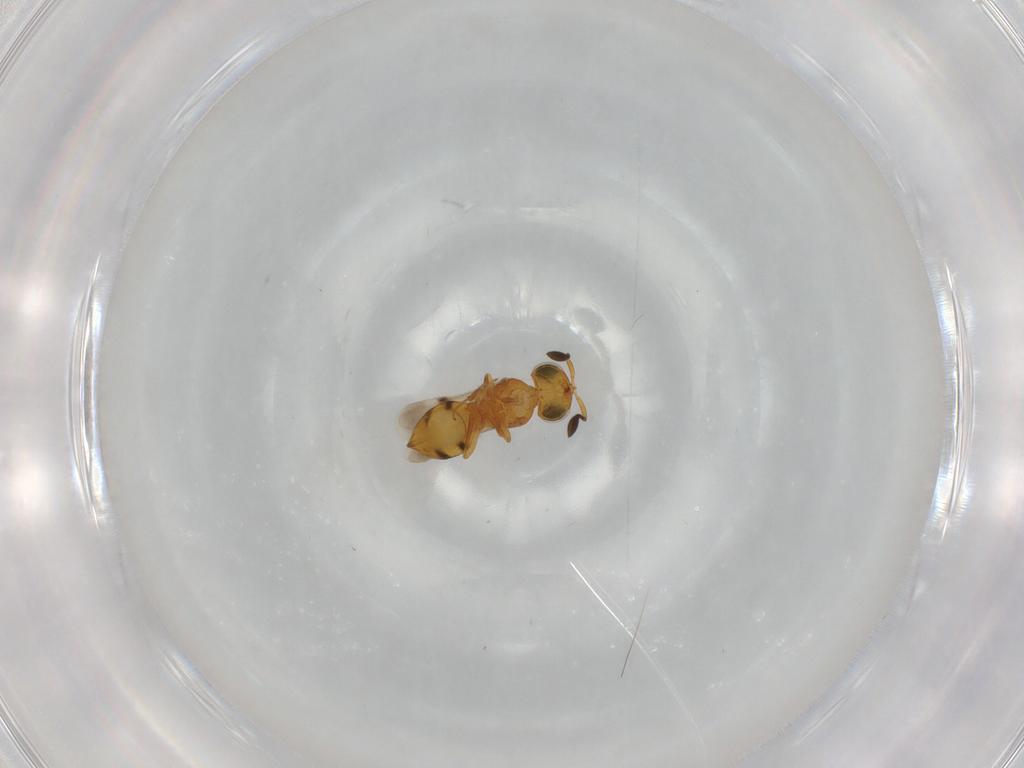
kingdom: Animalia
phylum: Arthropoda
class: Insecta
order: Hymenoptera
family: Scelionidae
